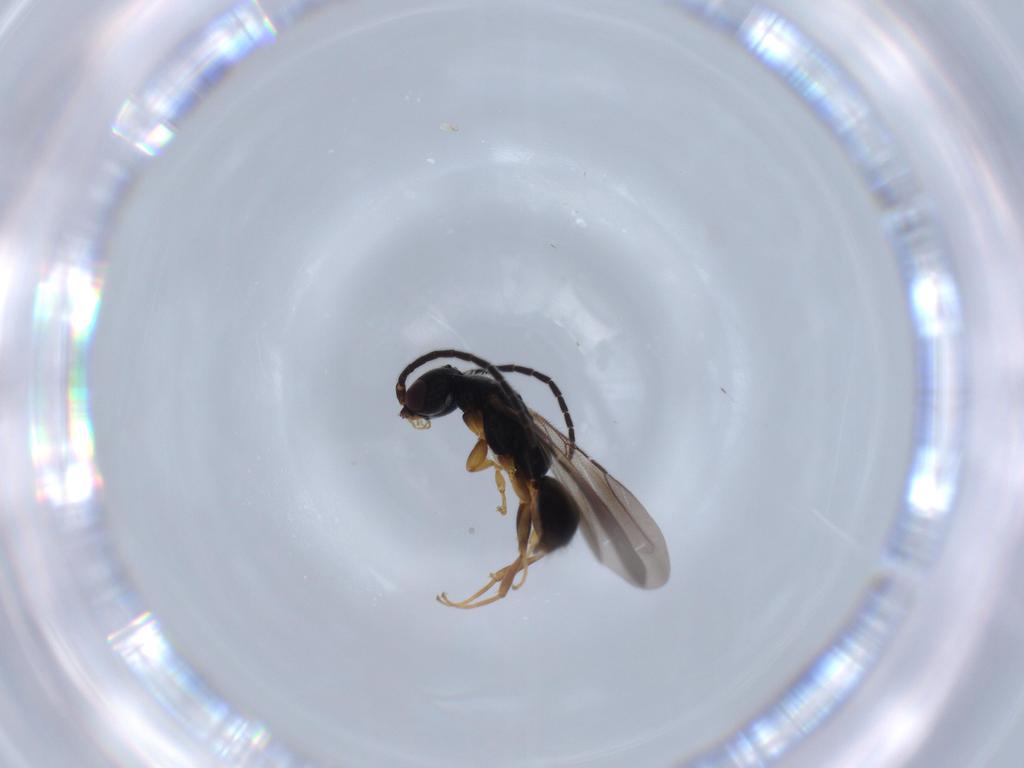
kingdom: Animalia
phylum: Arthropoda
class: Insecta
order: Hymenoptera
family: Bethylidae
